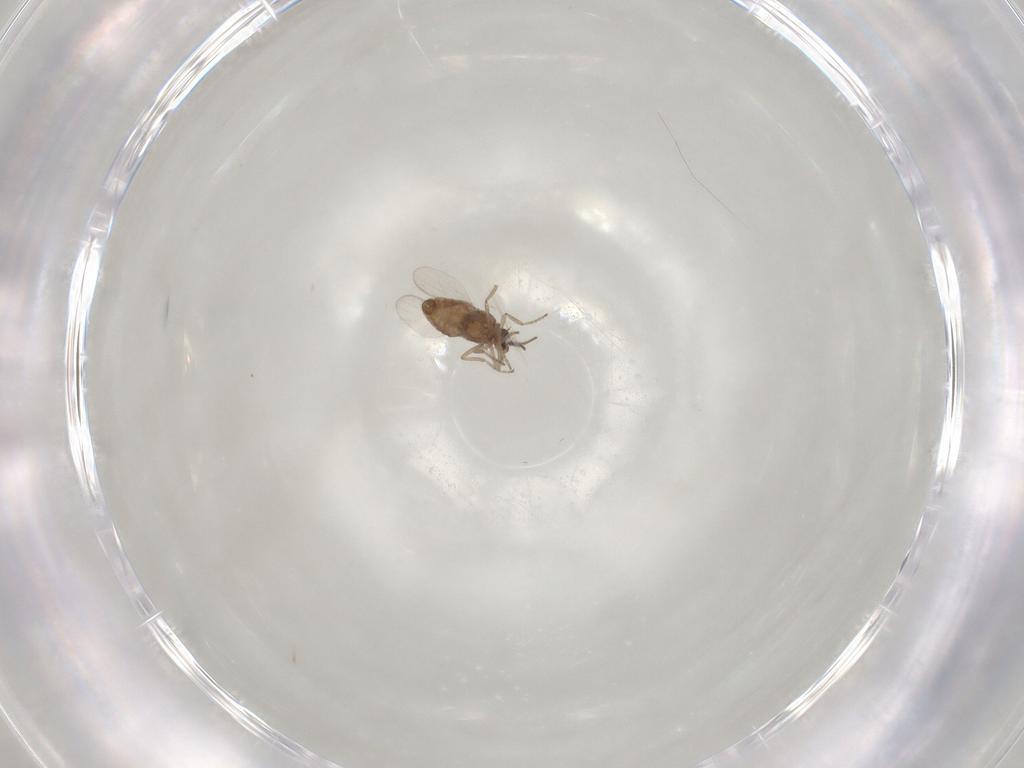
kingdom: Animalia
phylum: Arthropoda
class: Insecta
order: Diptera
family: Ceratopogonidae
